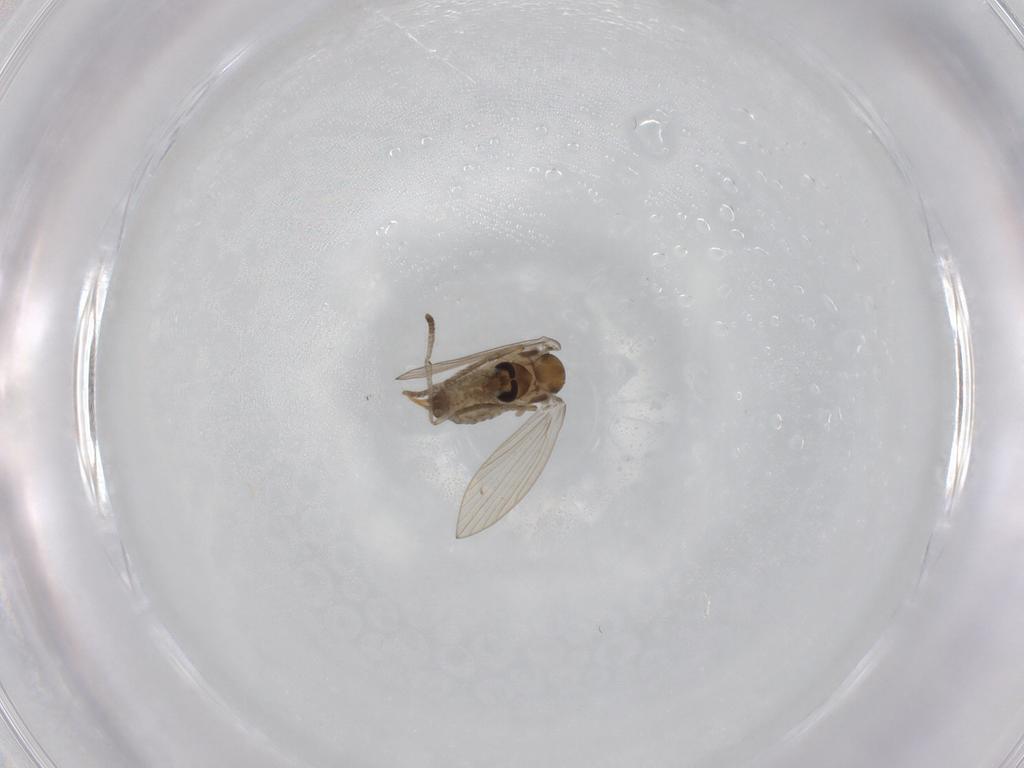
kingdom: Animalia
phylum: Arthropoda
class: Insecta
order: Diptera
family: Psychodidae
